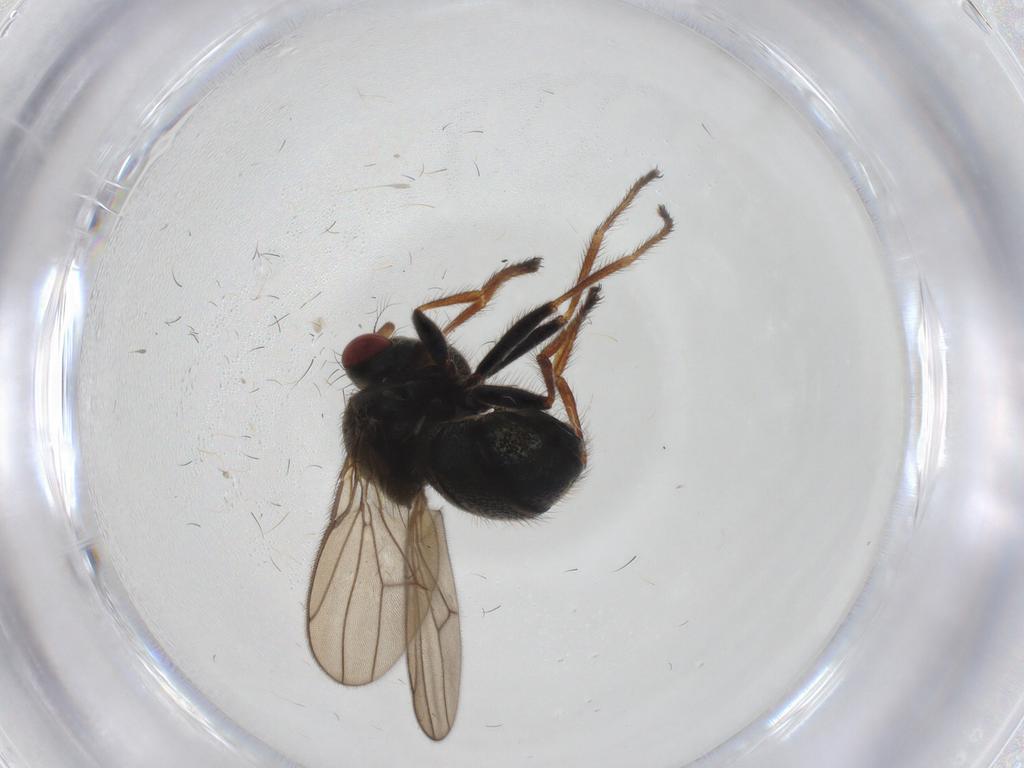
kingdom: Animalia
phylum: Arthropoda
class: Insecta
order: Diptera
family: Ephydridae
